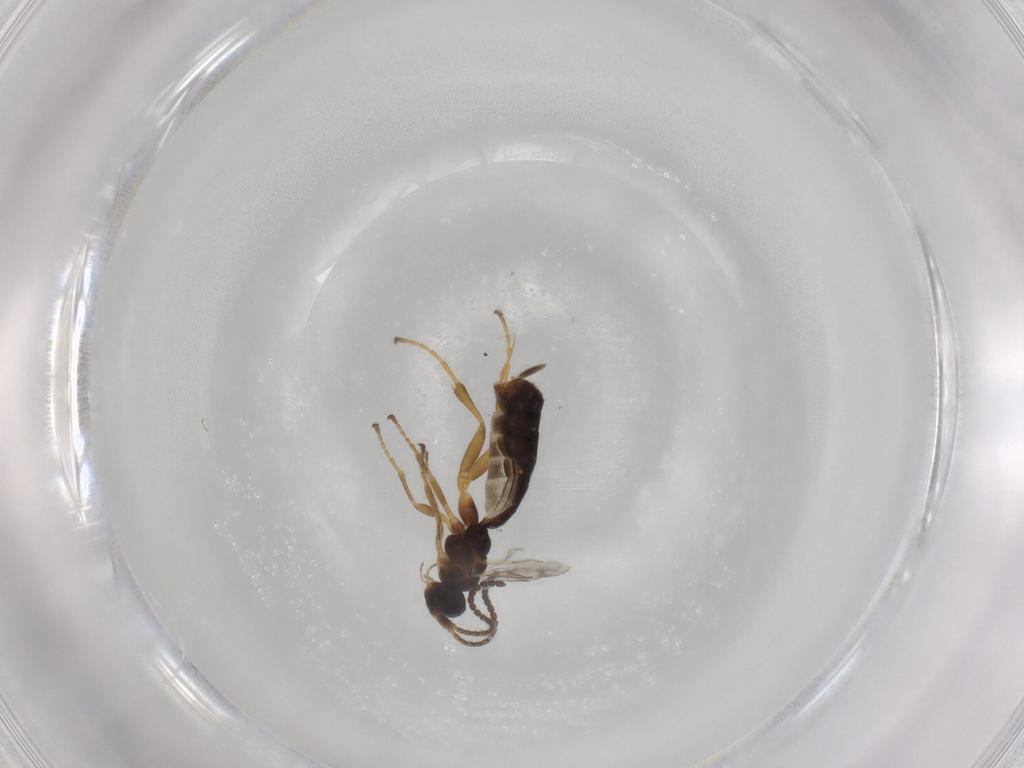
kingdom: Animalia
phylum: Arthropoda
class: Insecta
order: Hymenoptera
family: Ichneumonidae
